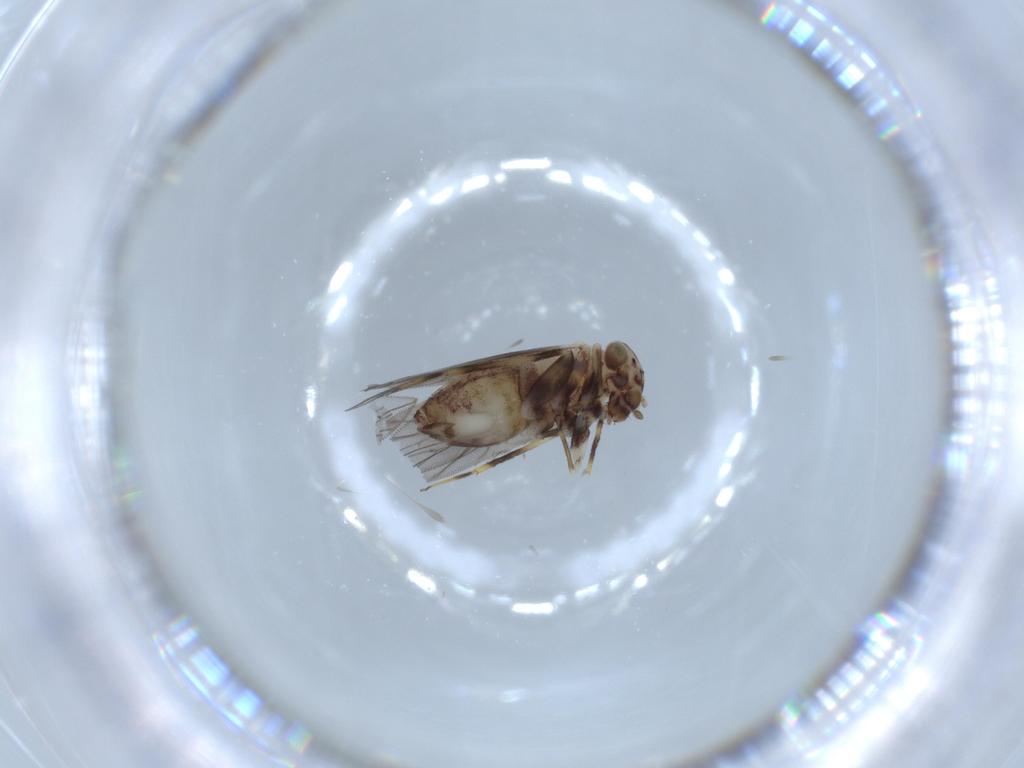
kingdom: Animalia
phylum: Arthropoda
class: Insecta
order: Psocodea
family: Lepidopsocidae
